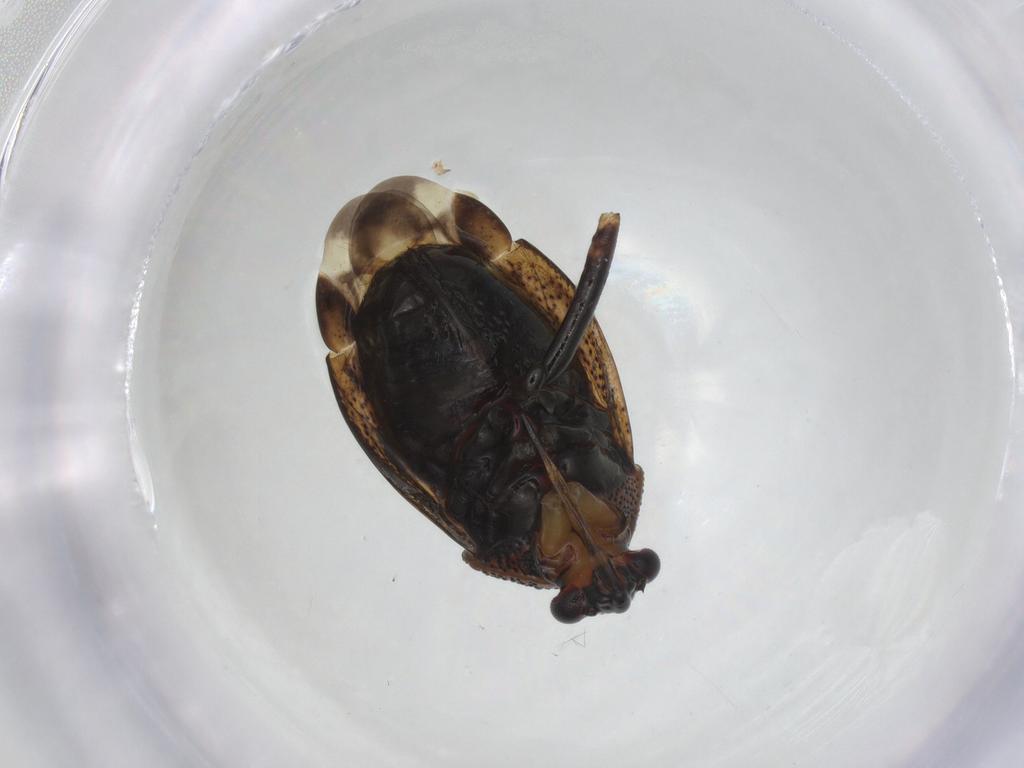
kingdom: Animalia
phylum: Arthropoda
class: Insecta
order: Hemiptera
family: Miridae
